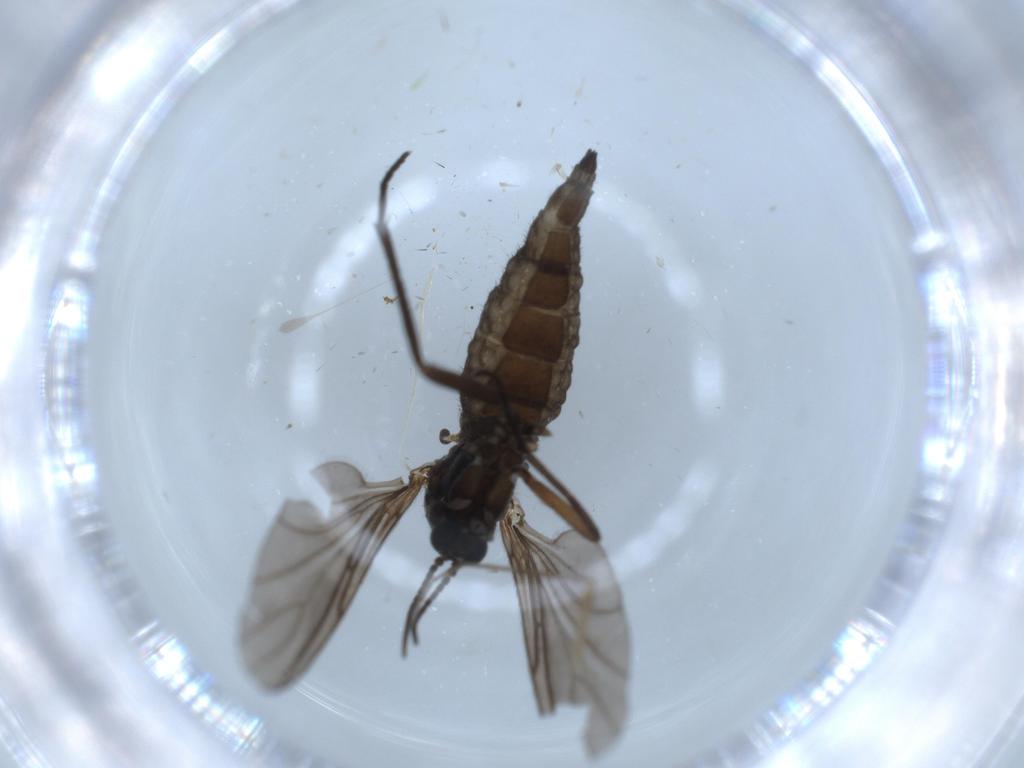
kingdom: Animalia
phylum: Arthropoda
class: Insecta
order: Diptera
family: Sciaridae
